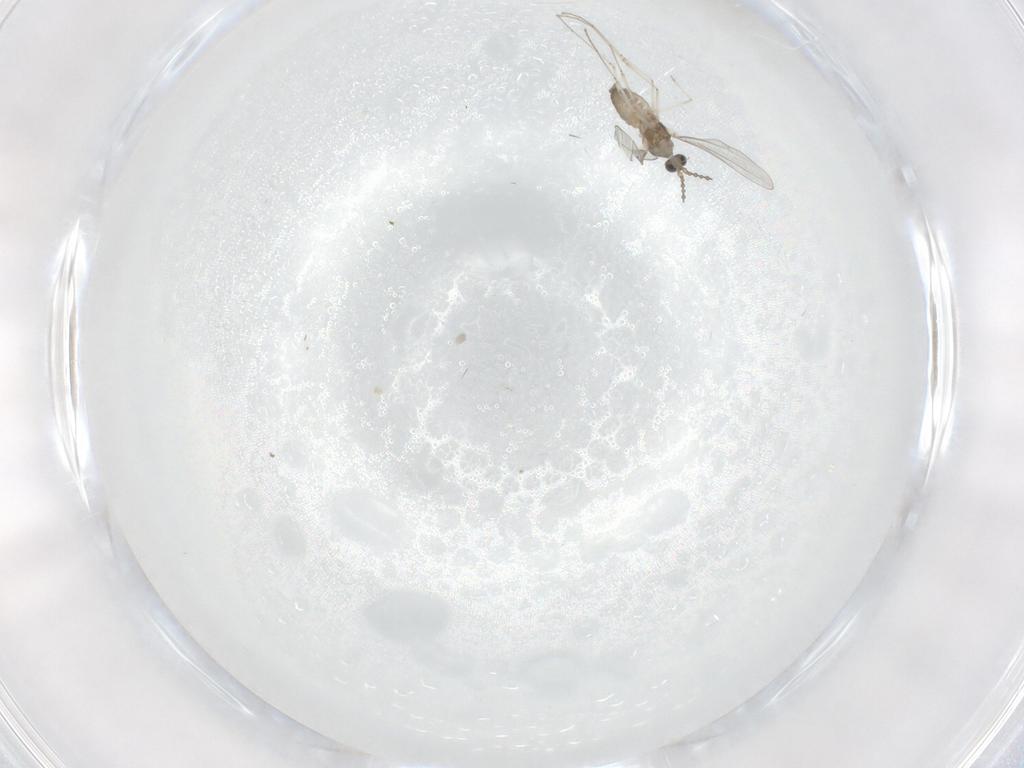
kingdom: Animalia
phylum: Arthropoda
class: Insecta
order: Diptera
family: Cecidomyiidae
